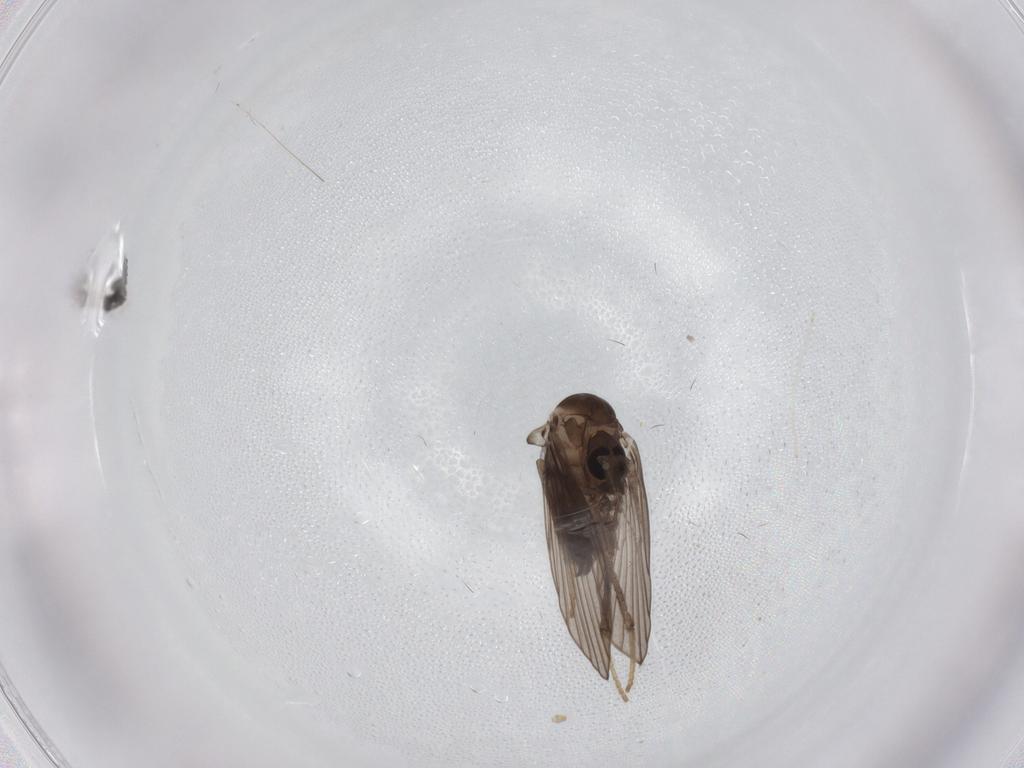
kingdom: Animalia
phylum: Arthropoda
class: Insecta
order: Diptera
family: Psychodidae
